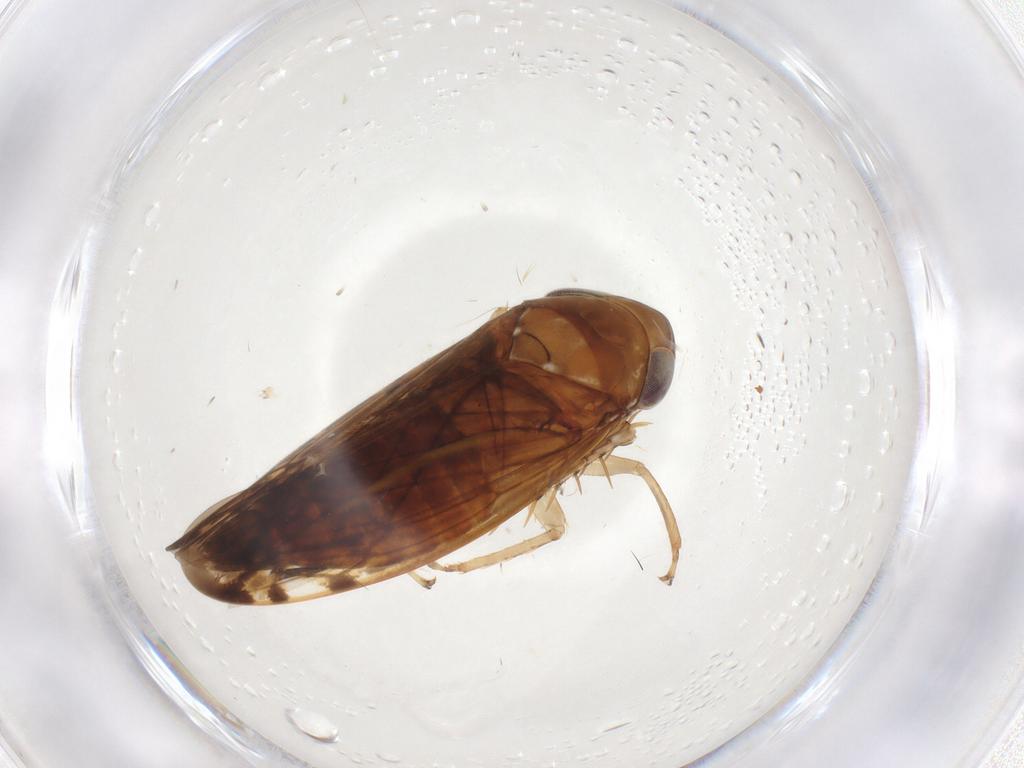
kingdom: Animalia
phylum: Arthropoda
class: Insecta
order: Hemiptera
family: Cicadellidae
